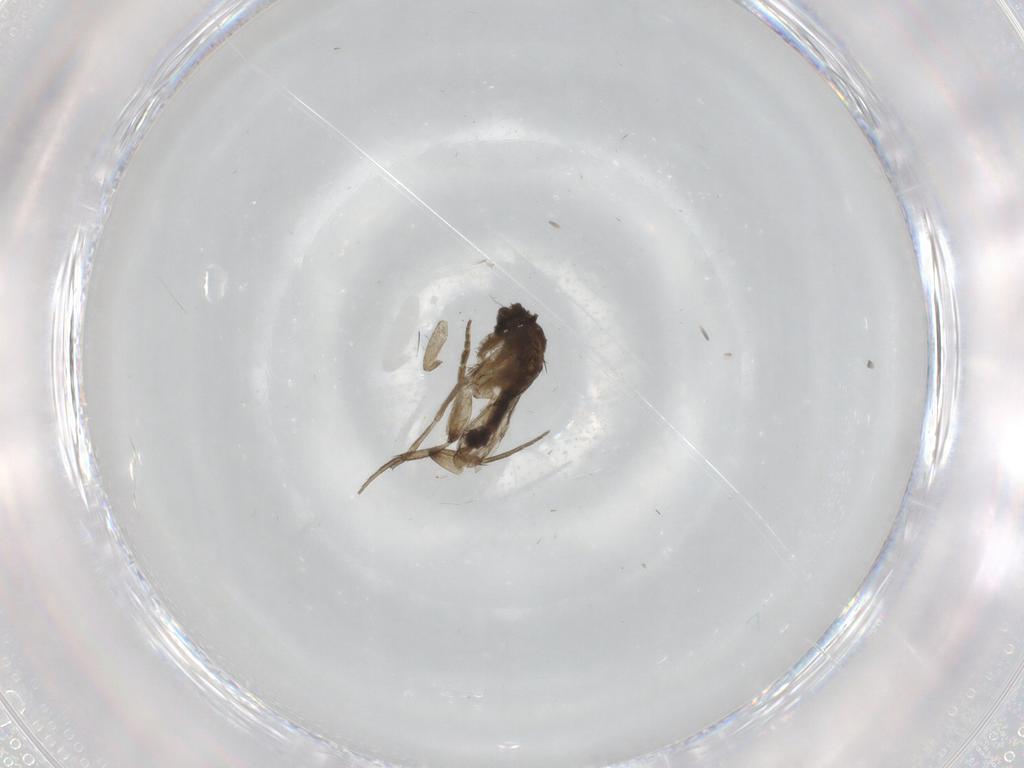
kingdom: Animalia
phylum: Arthropoda
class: Insecta
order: Diptera
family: Psychodidae
